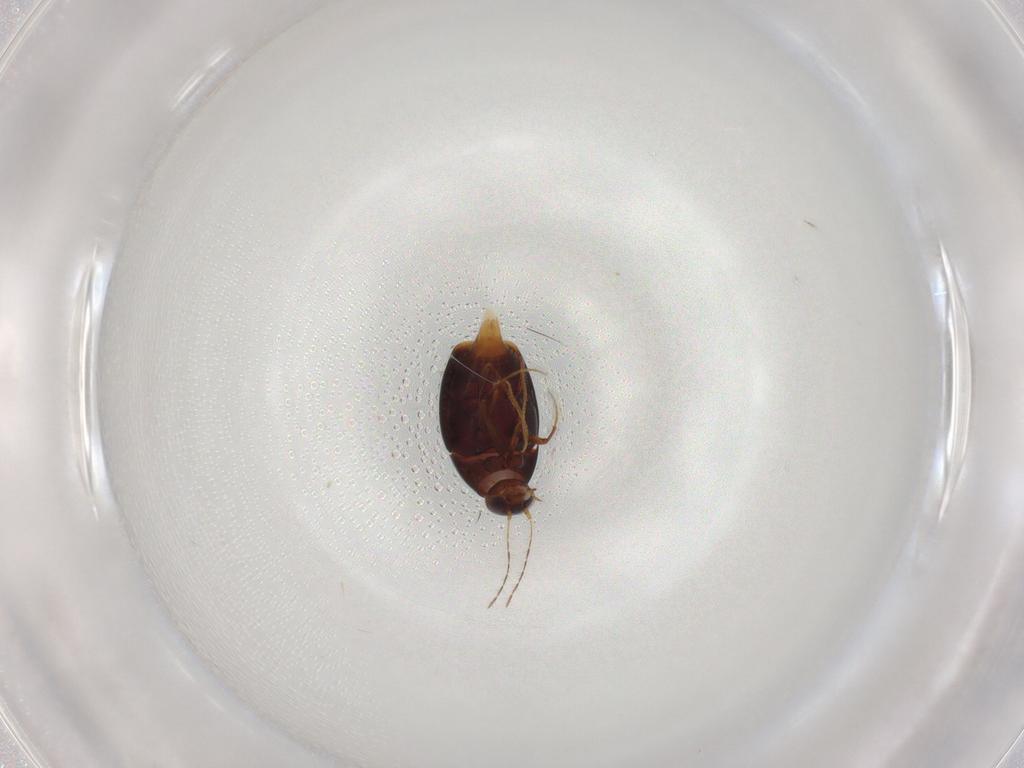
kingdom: Animalia
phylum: Arthropoda
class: Insecta
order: Coleoptera
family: Chrysomelidae
